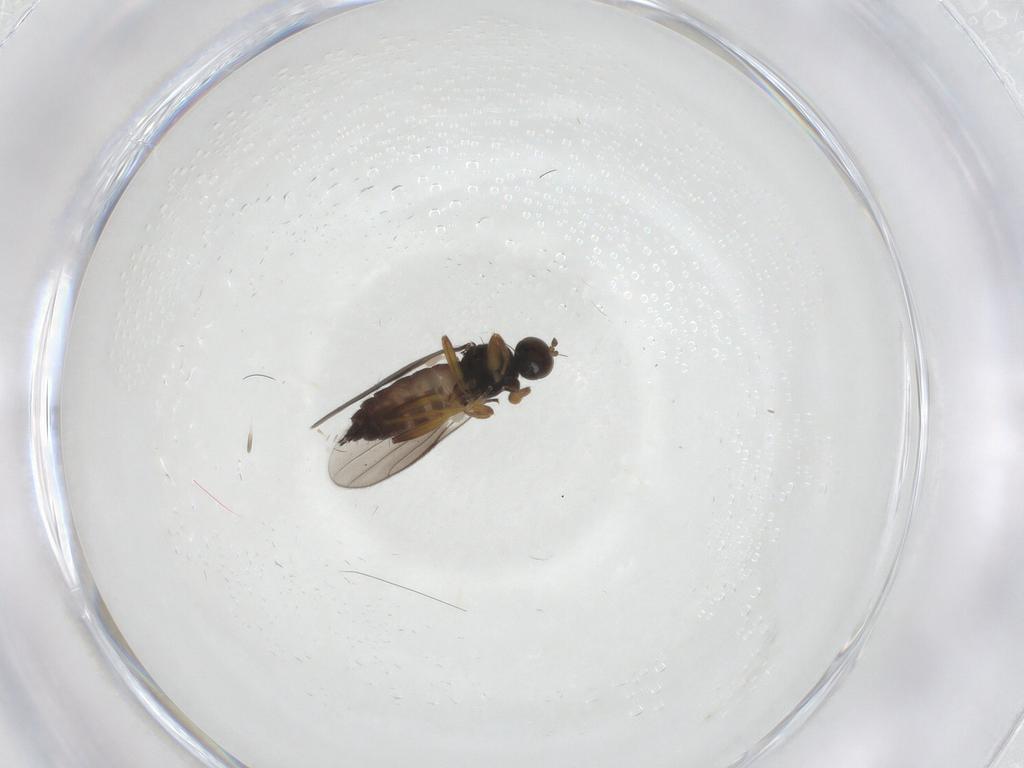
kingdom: Animalia
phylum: Arthropoda
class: Insecta
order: Diptera
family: Hybotidae
